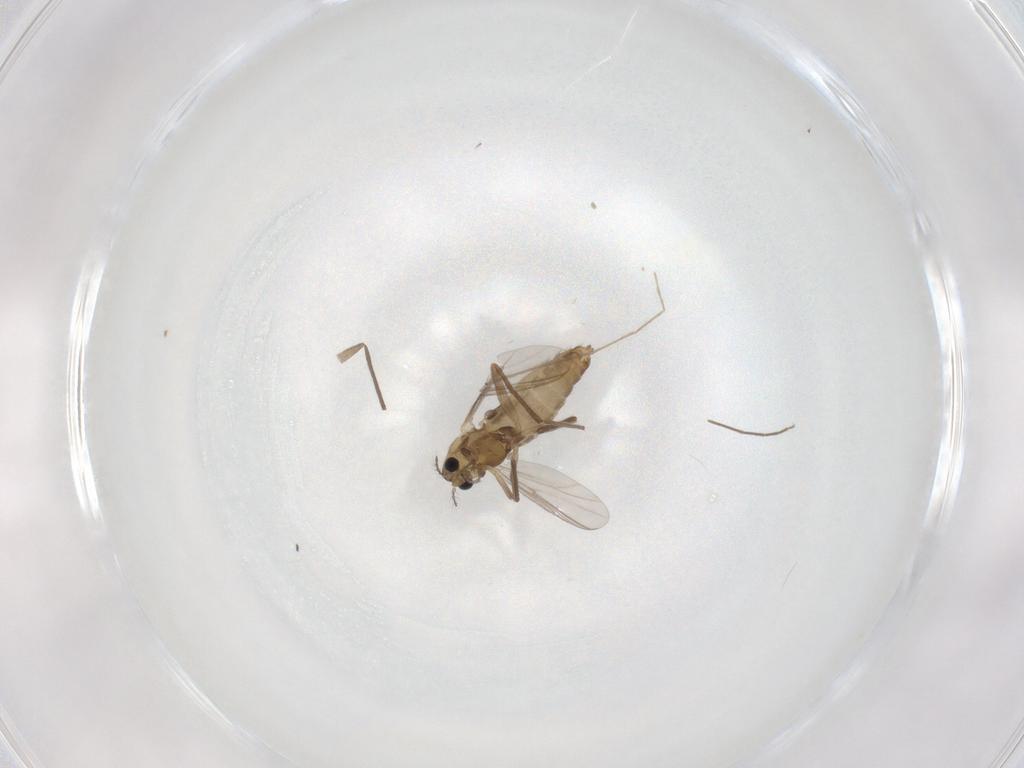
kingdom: Animalia
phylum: Arthropoda
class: Insecta
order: Diptera
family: Chironomidae
